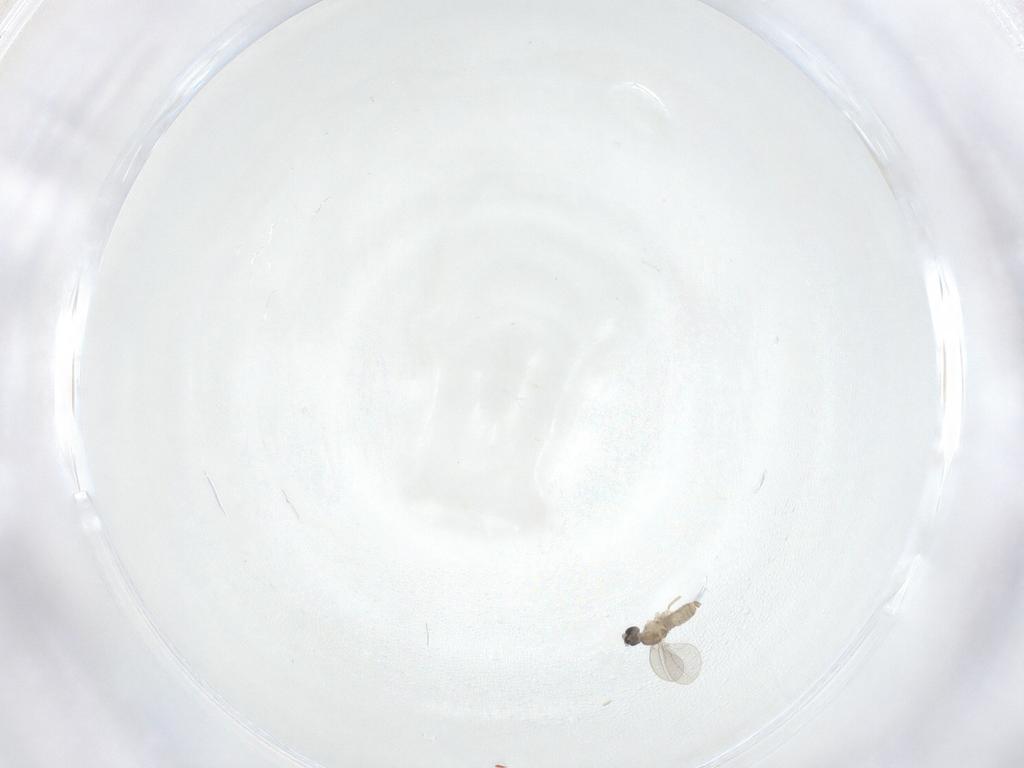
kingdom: Animalia
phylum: Arthropoda
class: Insecta
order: Diptera
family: Cecidomyiidae
